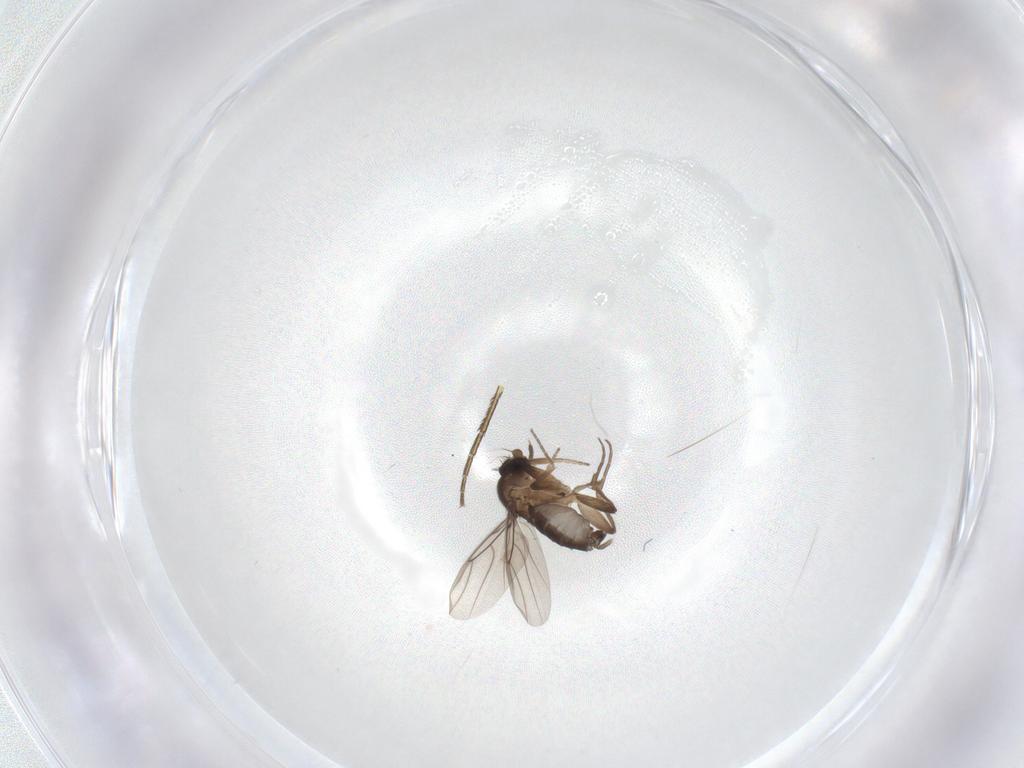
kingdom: Animalia
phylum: Arthropoda
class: Insecta
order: Diptera
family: Phoridae
